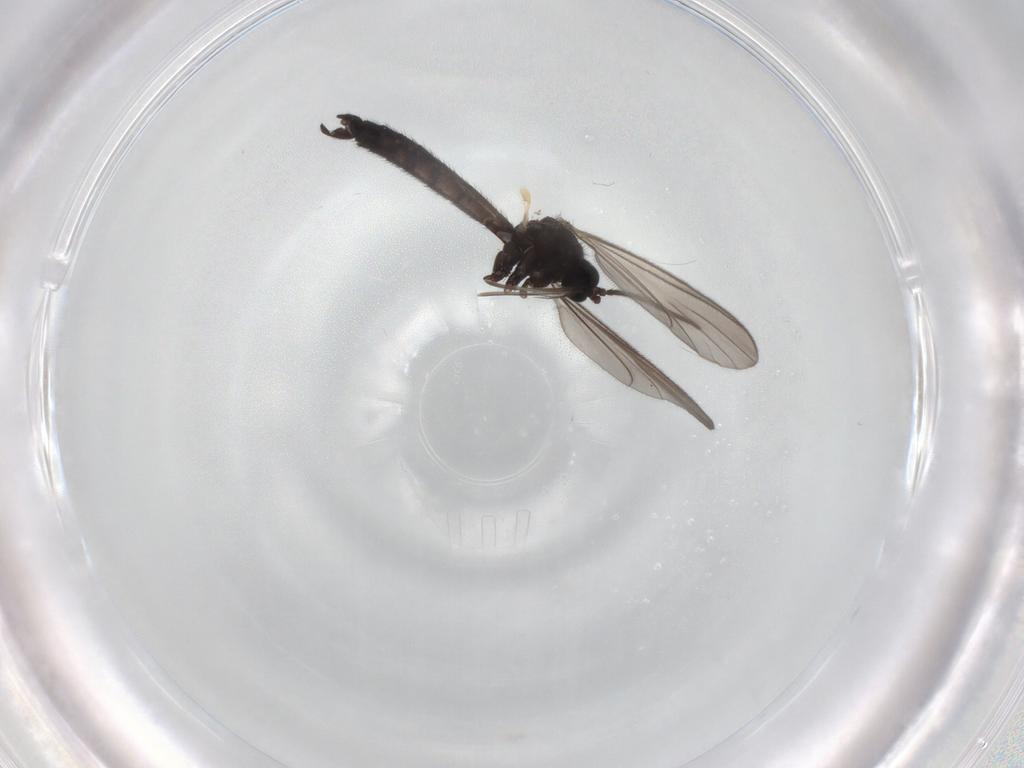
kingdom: Animalia
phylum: Arthropoda
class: Insecta
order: Diptera
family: Keroplatidae
